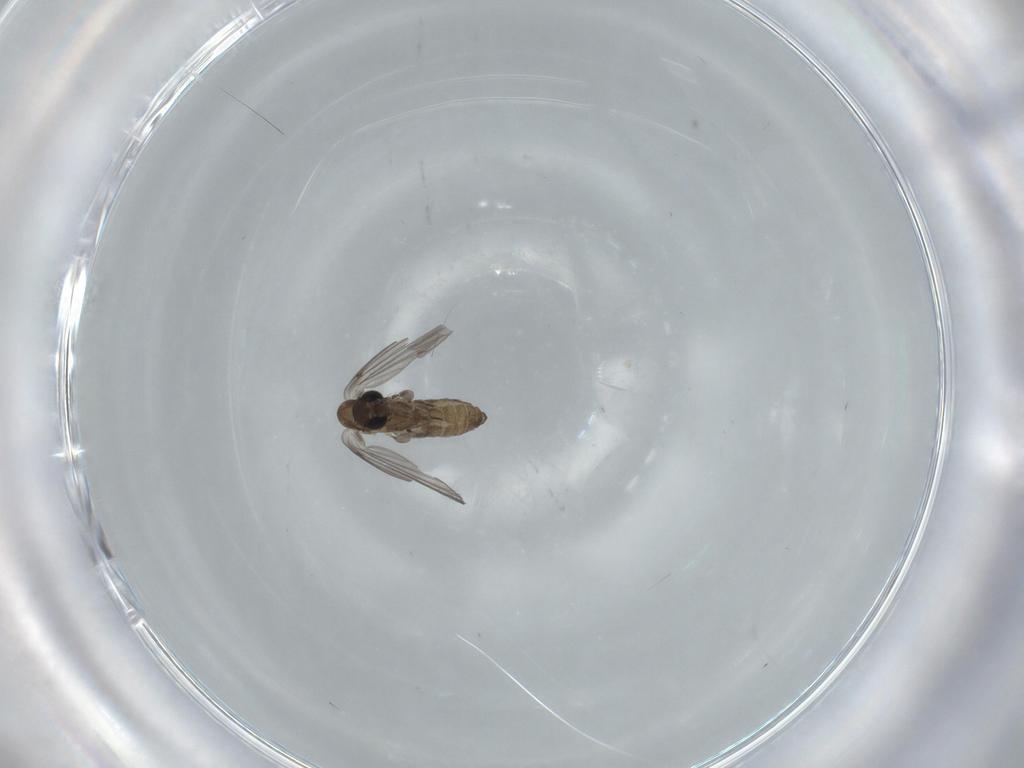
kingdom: Animalia
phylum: Arthropoda
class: Insecta
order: Diptera
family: Psychodidae
